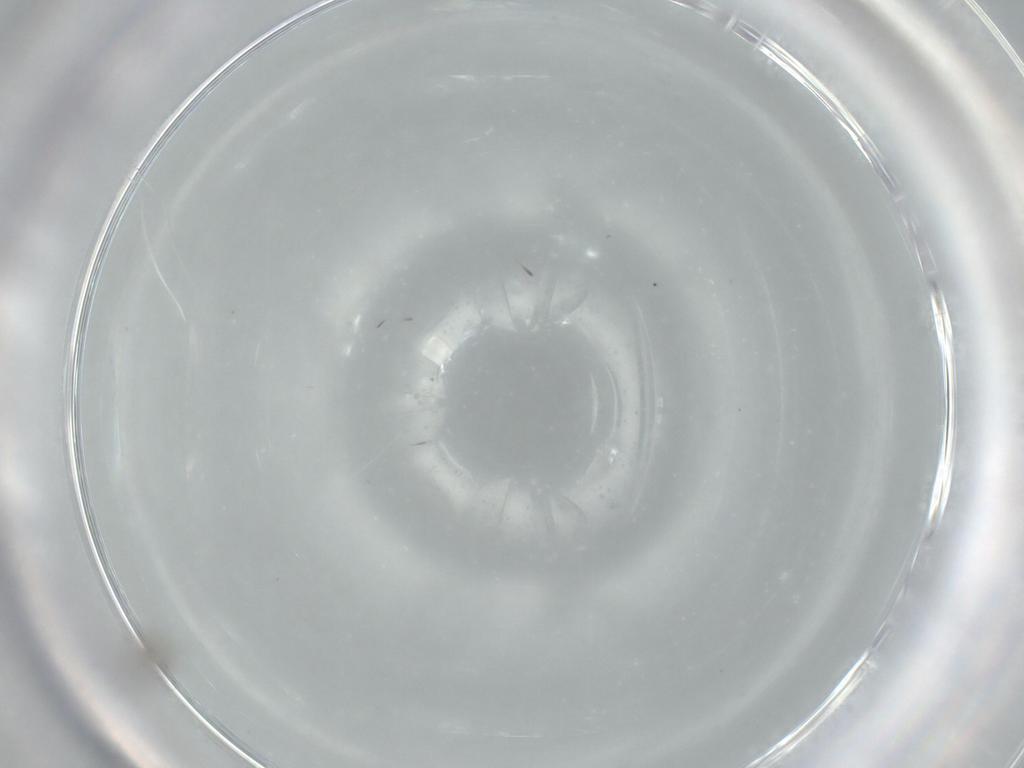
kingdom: Animalia
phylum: Arthropoda
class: Insecta
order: Diptera
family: Cecidomyiidae
